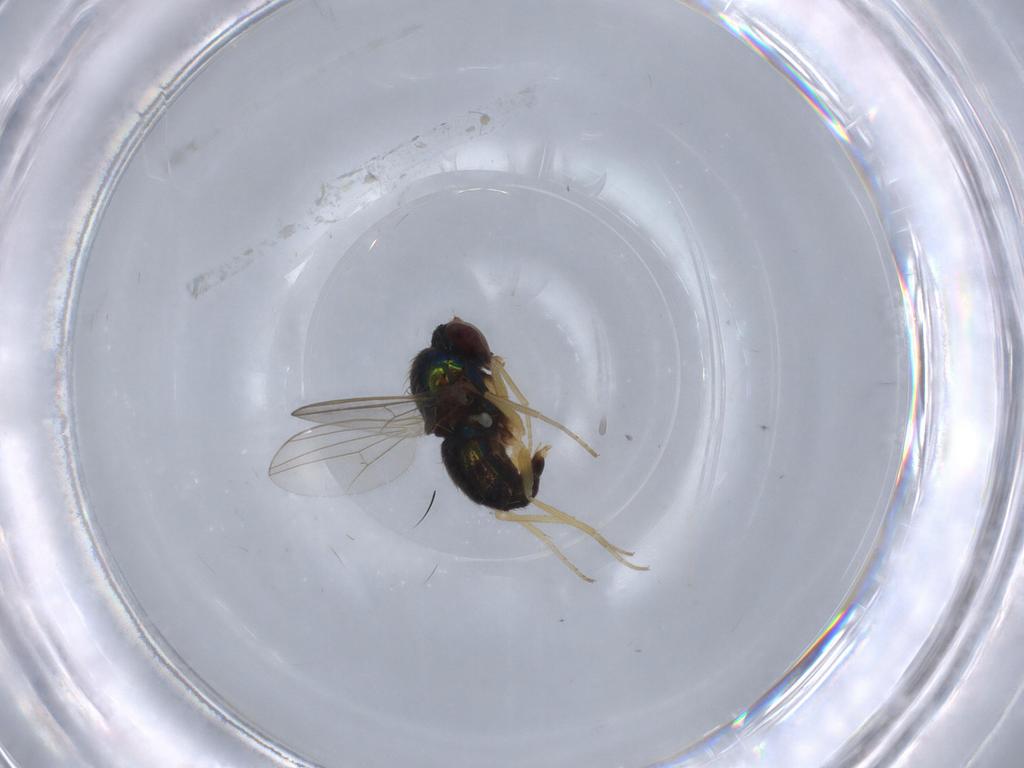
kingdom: Animalia
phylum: Arthropoda
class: Insecta
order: Diptera
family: Dolichopodidae
